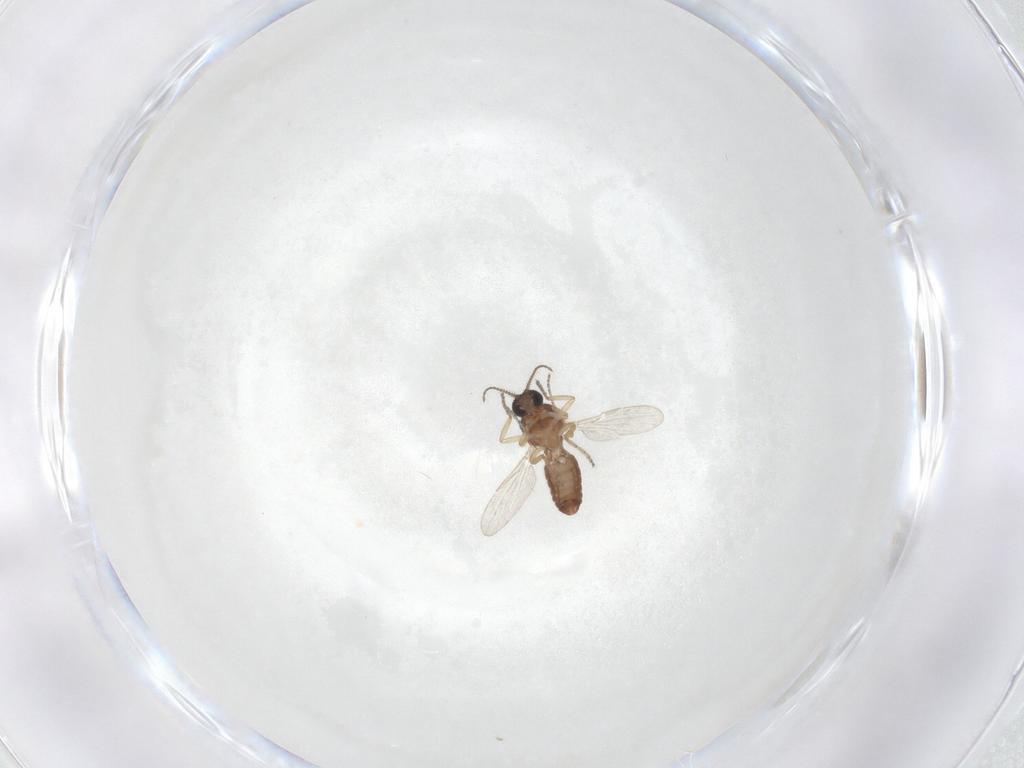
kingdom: Animalia
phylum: Arthropoda
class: Insecta
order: Diptera
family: Ceratopogonidae
